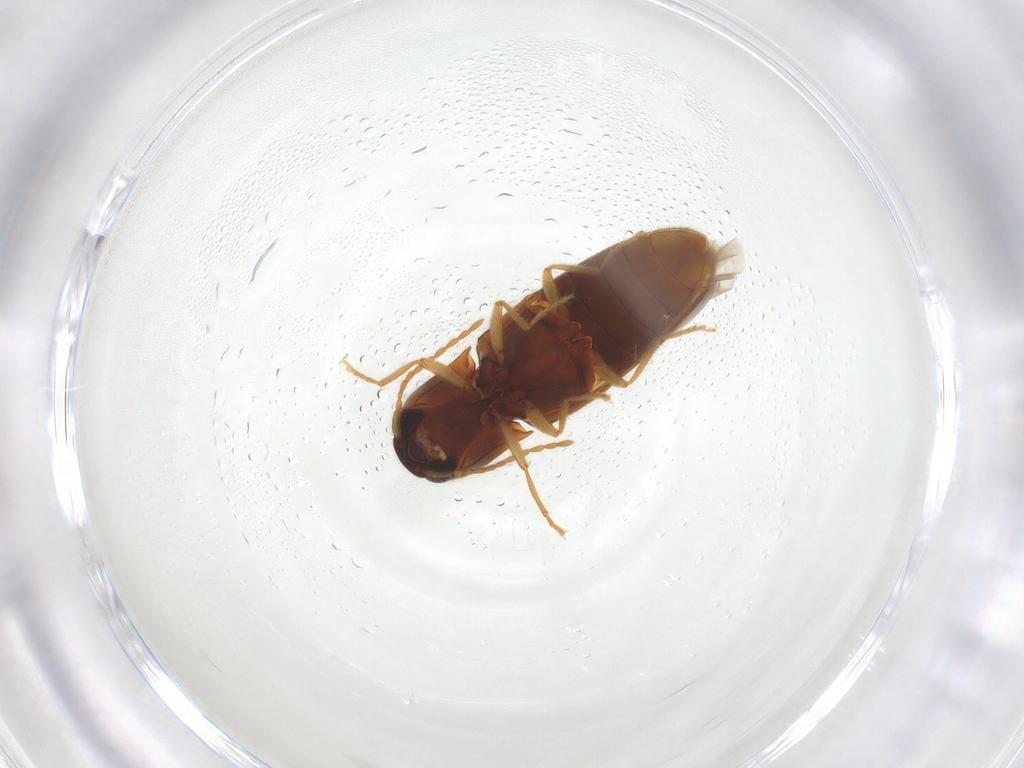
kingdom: Animalia
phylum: Arthropoda
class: Insecta
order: Coleoptera
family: Elateridae
